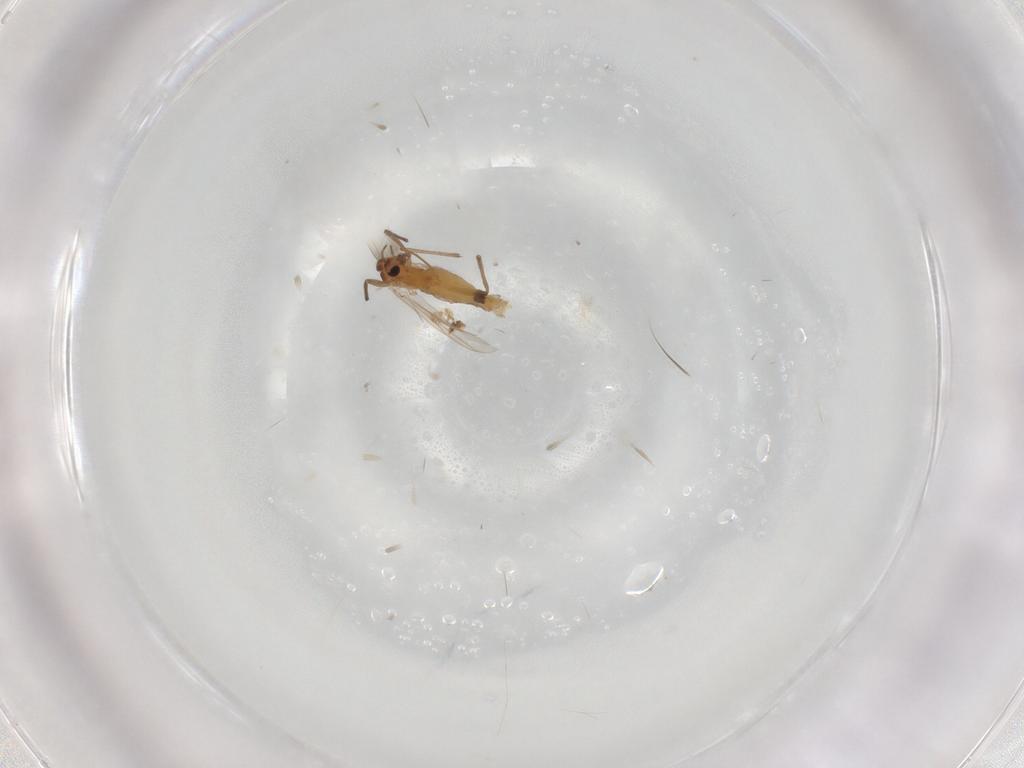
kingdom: Animalia
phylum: Arthropoda
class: Insecta
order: Diptera
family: Chironomidae
